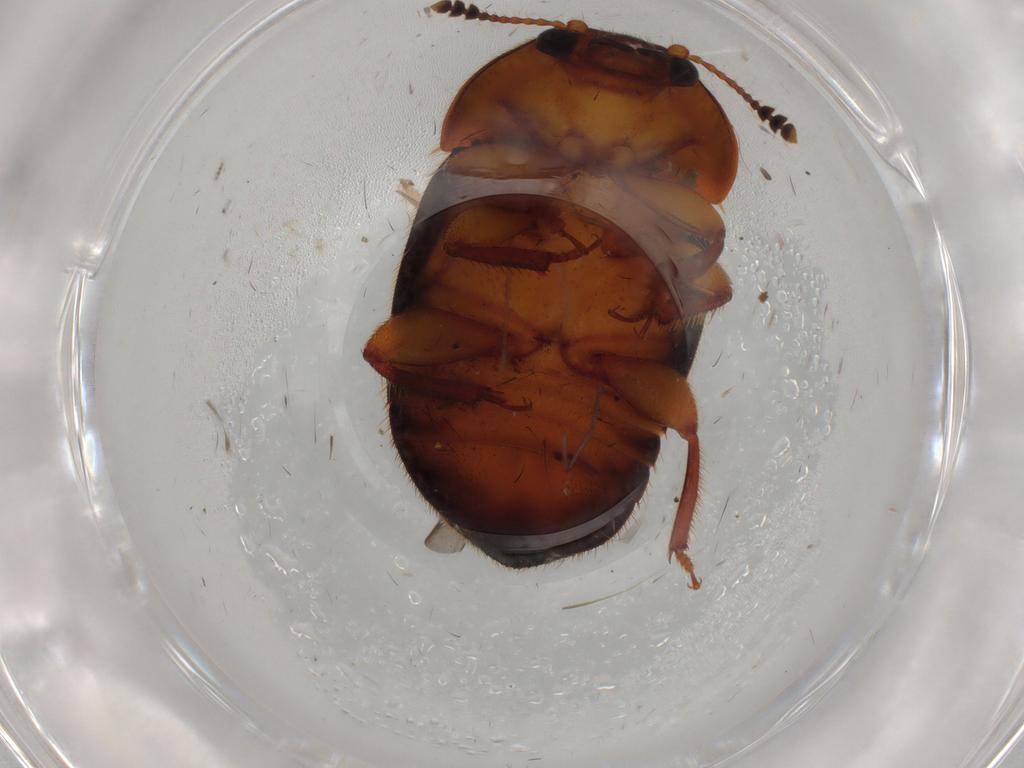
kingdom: Animalia
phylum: Arthropoda
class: Insecta
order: Coleoptera
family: Nitidulidae
